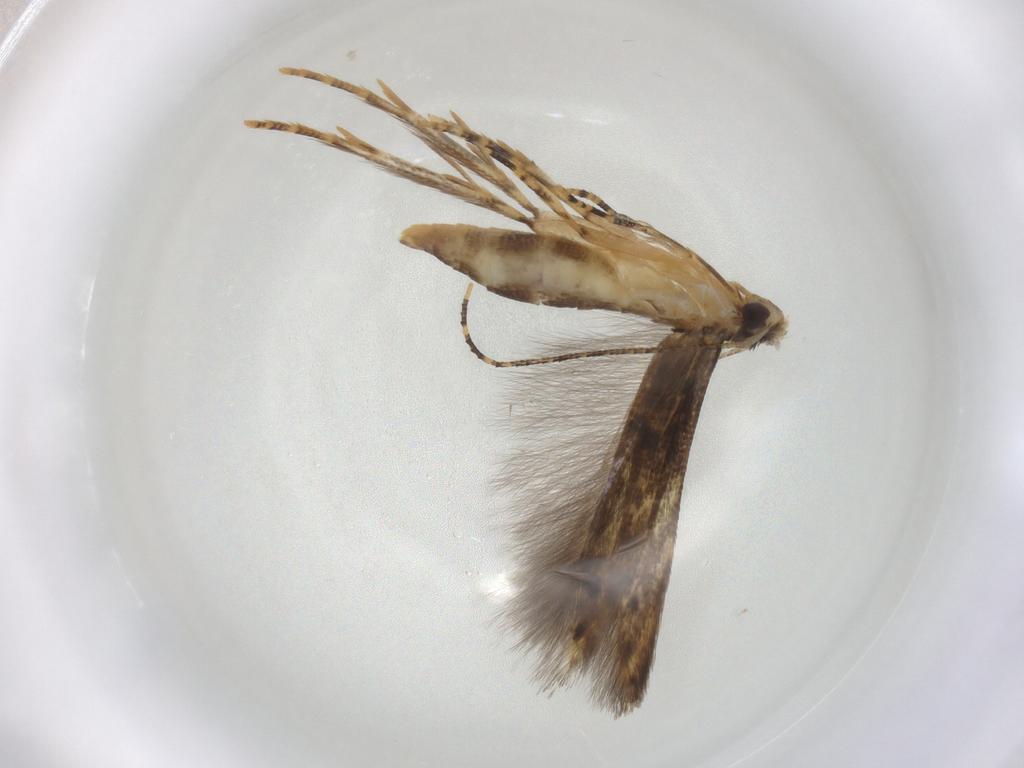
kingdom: Animalia
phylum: Arthropoda
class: Insecta
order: Lepidoptera
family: Gelechiidae
